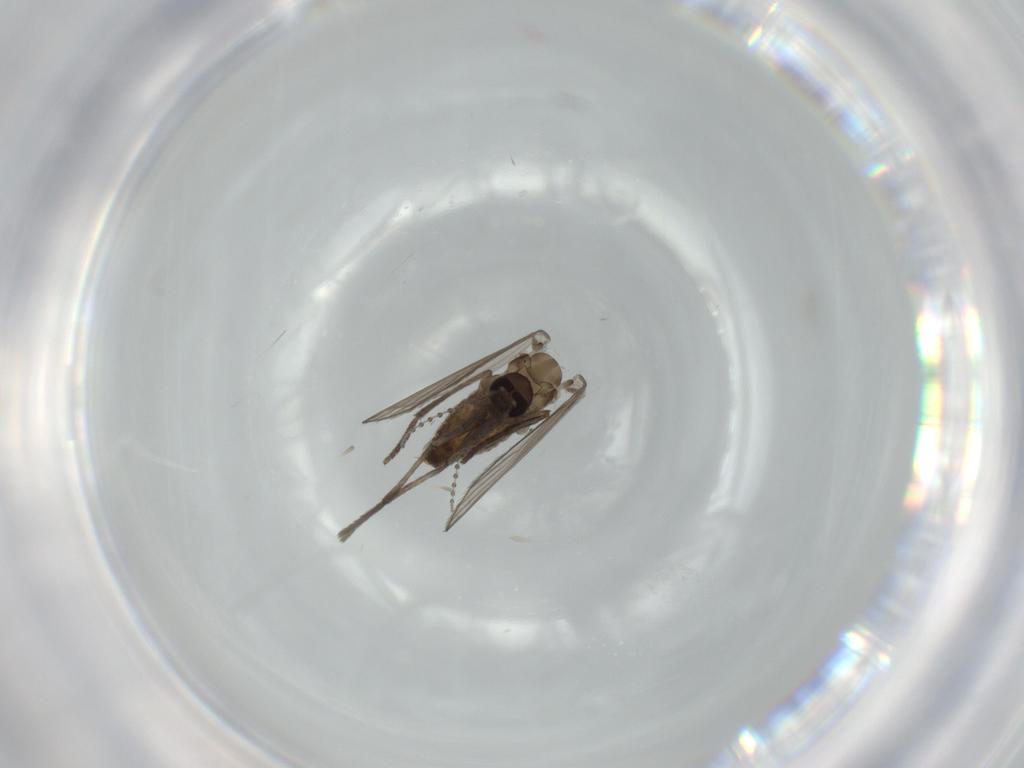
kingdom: Animalia
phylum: Arthropoda
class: Insecta
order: Diptera
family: Psychodidae
